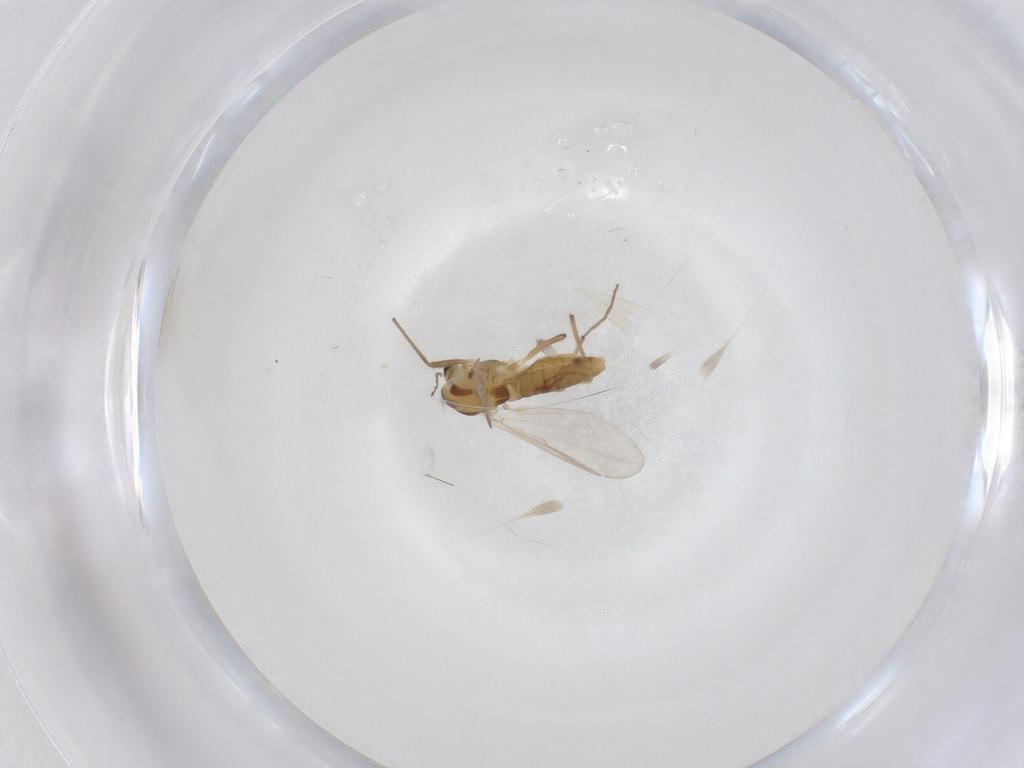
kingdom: Animalia
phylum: Arthropoda
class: Insecta
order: Diptera
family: Chironomidae
